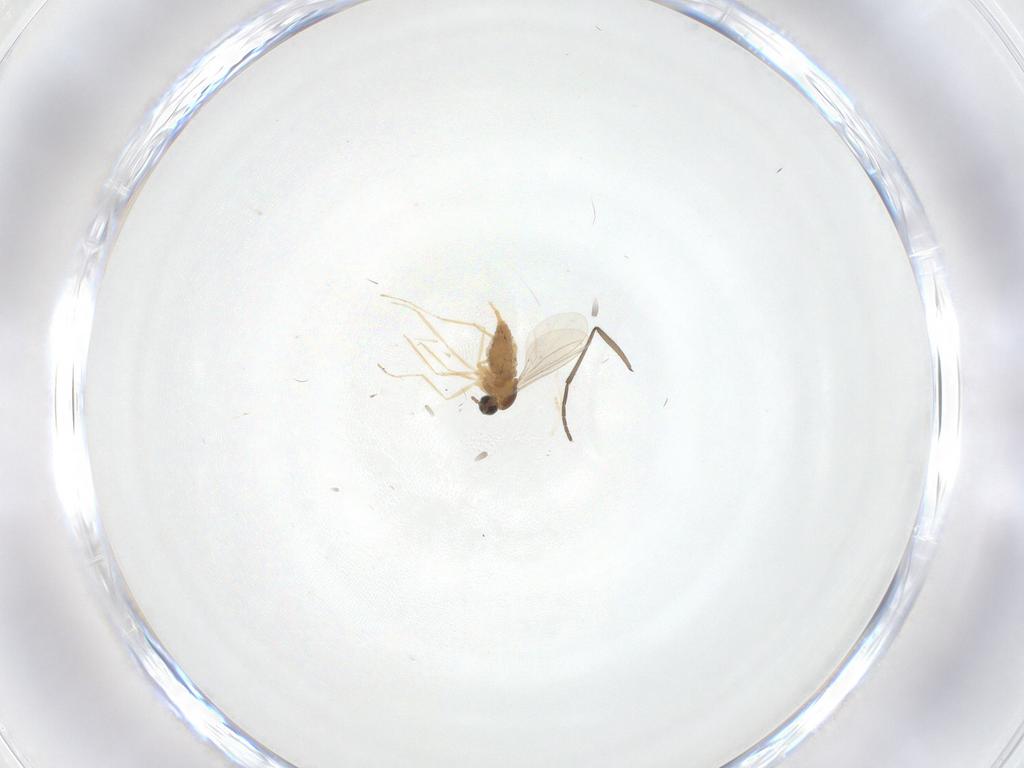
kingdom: Animalia
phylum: Arthropoda
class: Insecta
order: Diptera
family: Cecidomyiidae
